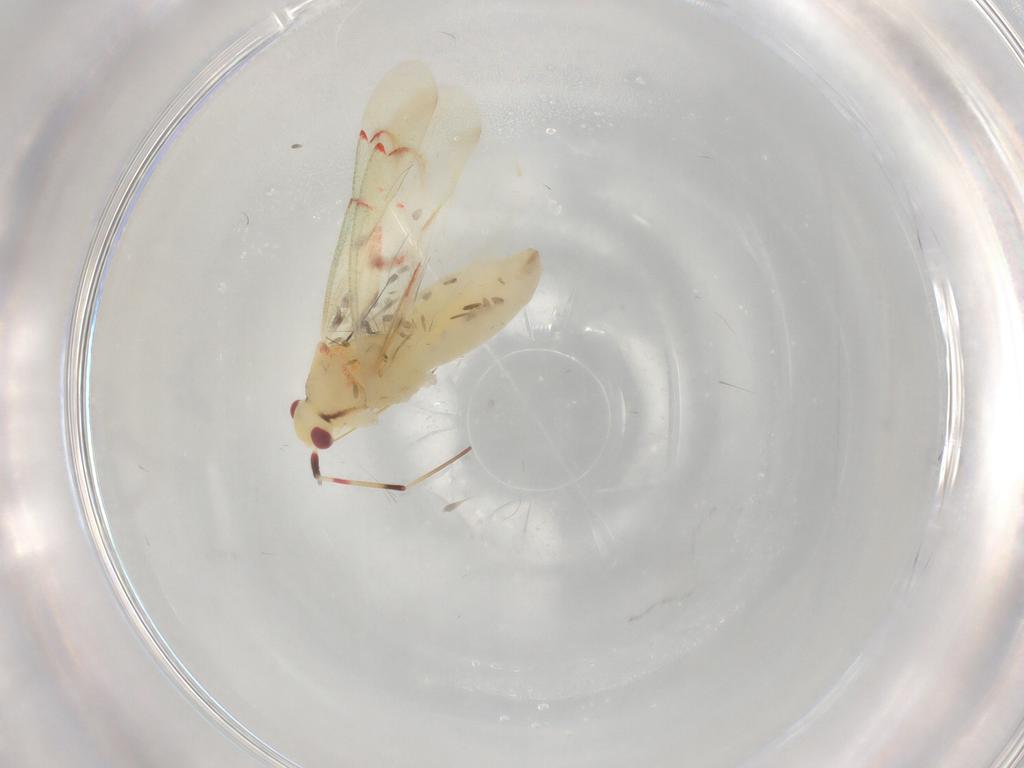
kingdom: Animalia
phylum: Arthropoda
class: Insecta
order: Hemiptera
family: Miridae
